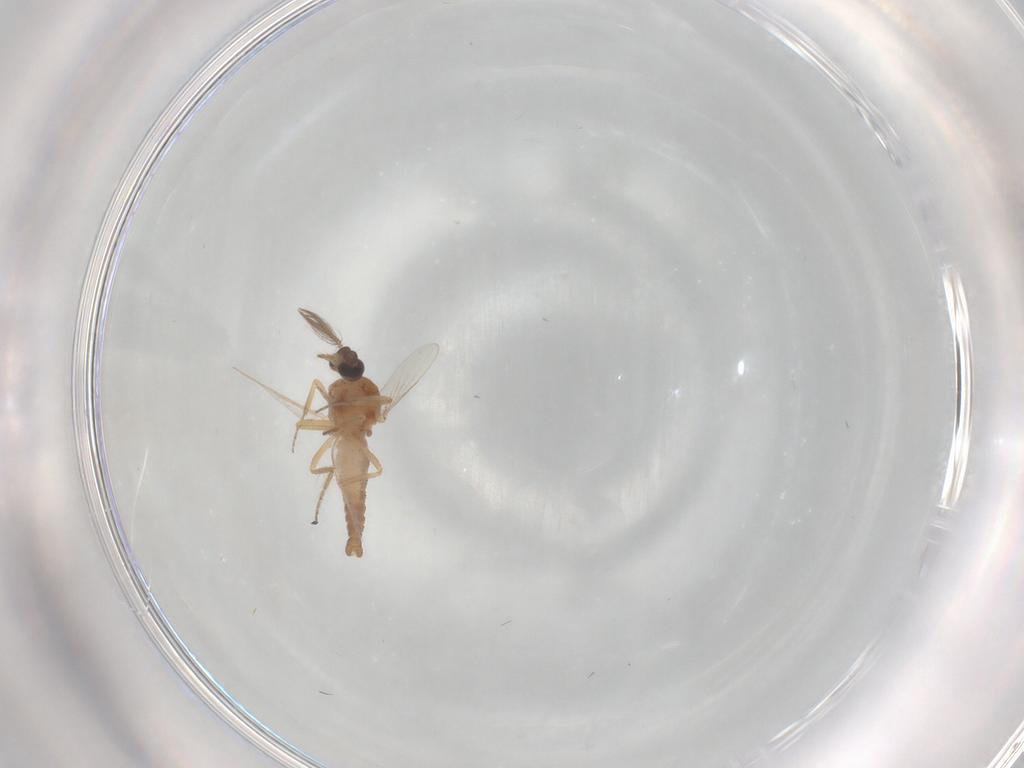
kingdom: Animalia
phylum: Arthropoda
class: Insecta
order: Diptera
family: Ceratopogonidae
